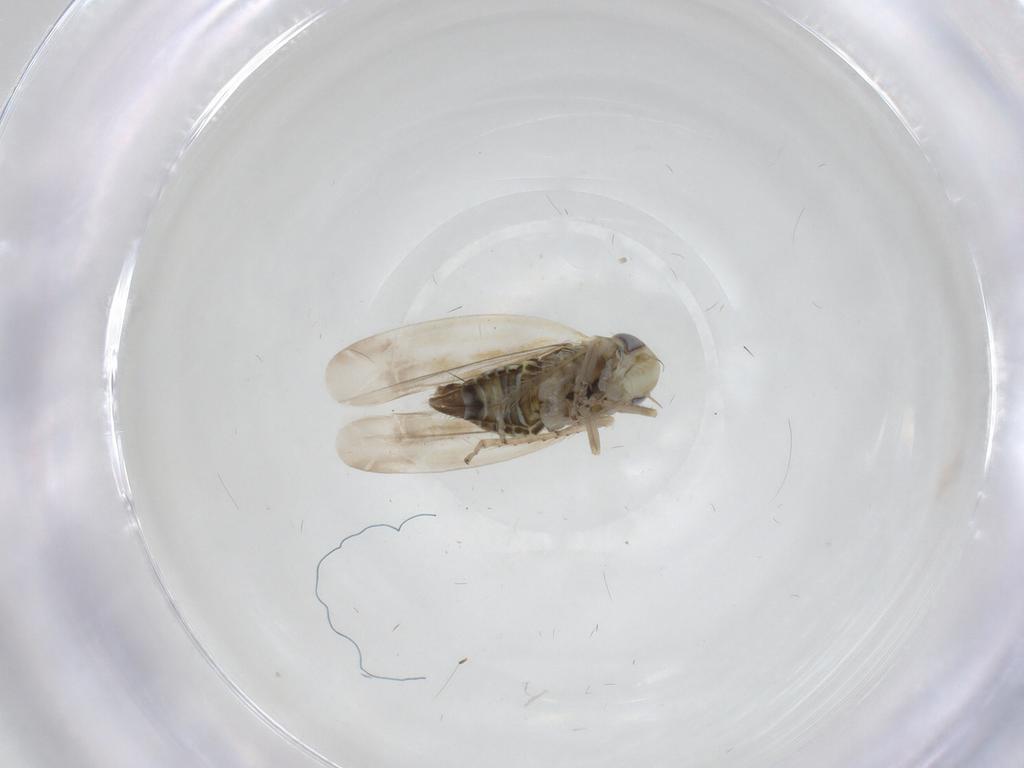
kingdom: Animalia
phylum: Arthropoda
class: Insecta
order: Hemiptera
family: Cicadellidae
